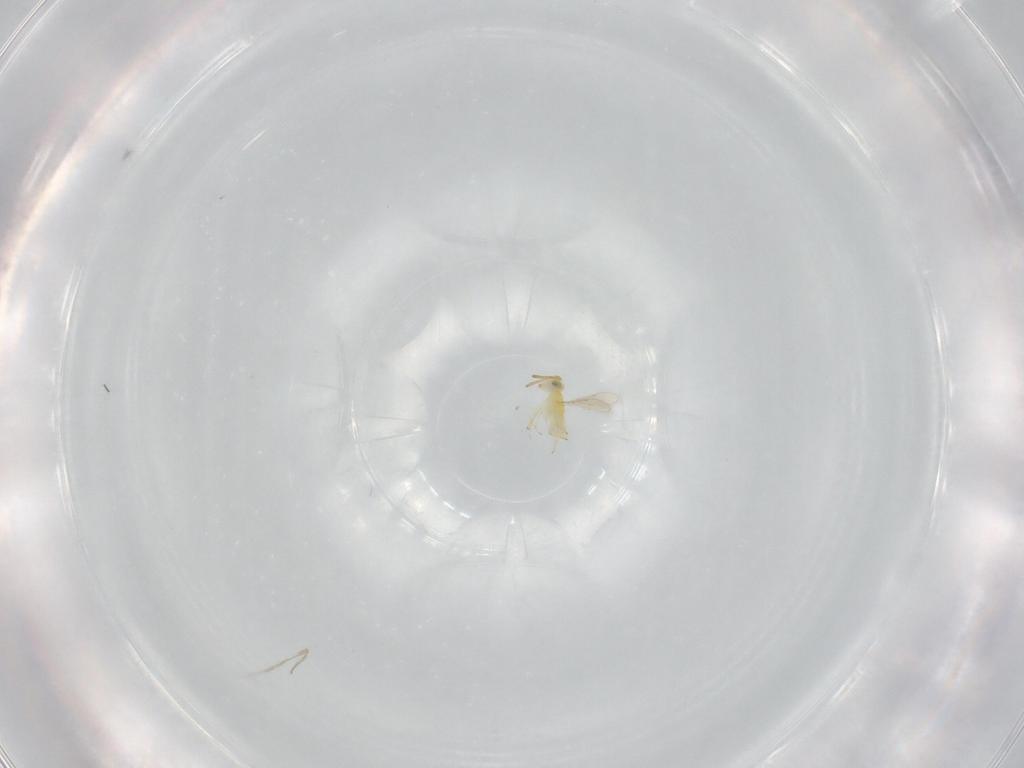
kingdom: Animalia
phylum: Arthropoda
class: Insecta
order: Hymenoptera
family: Aphelinidae
